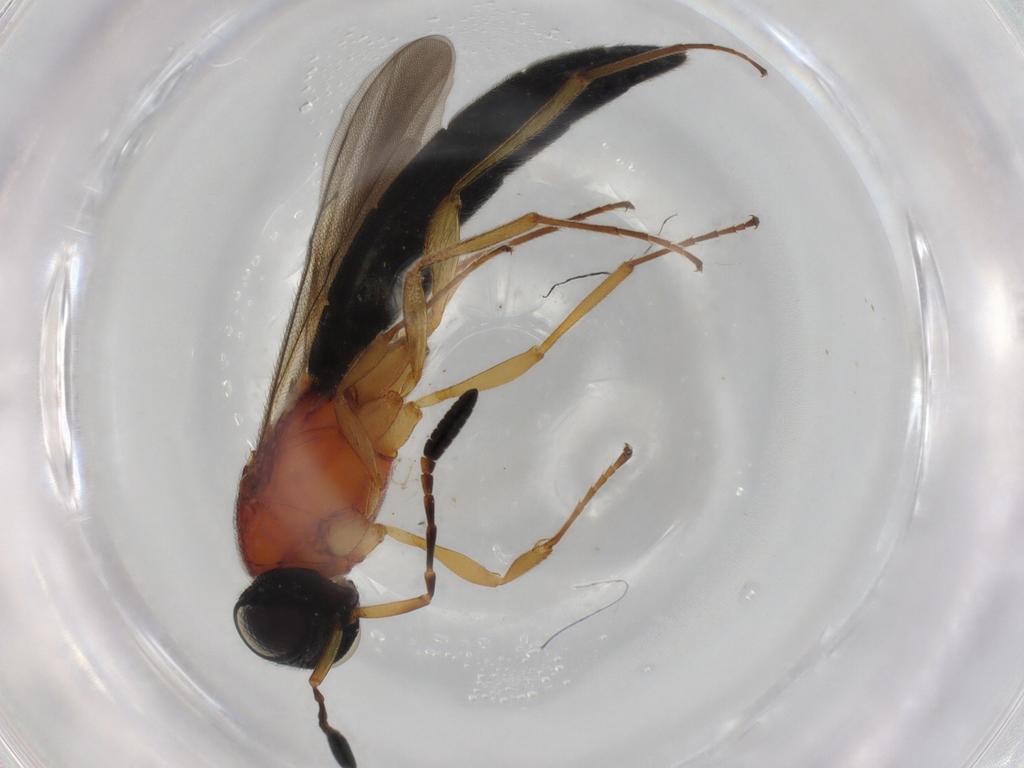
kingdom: Animalia
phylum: Arthropoda
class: Insecta
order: Hymenoptera
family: Scelionidae
